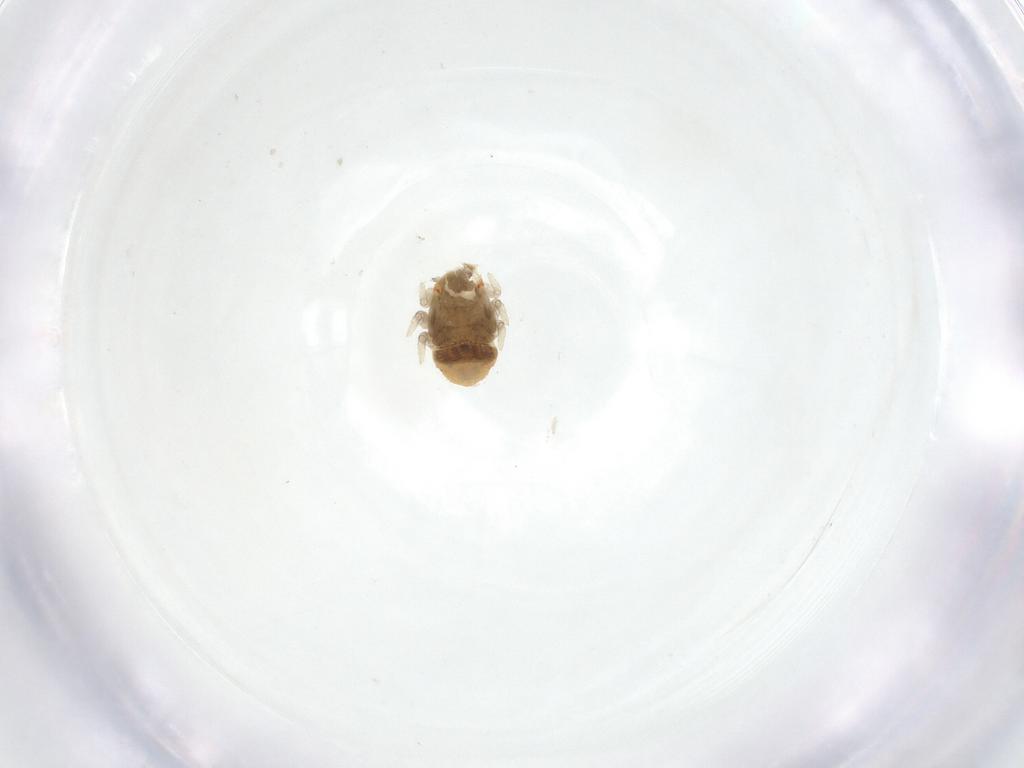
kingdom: Animalia
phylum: Arthropoda
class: Insecta
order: Hemiptera
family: Triozidae
